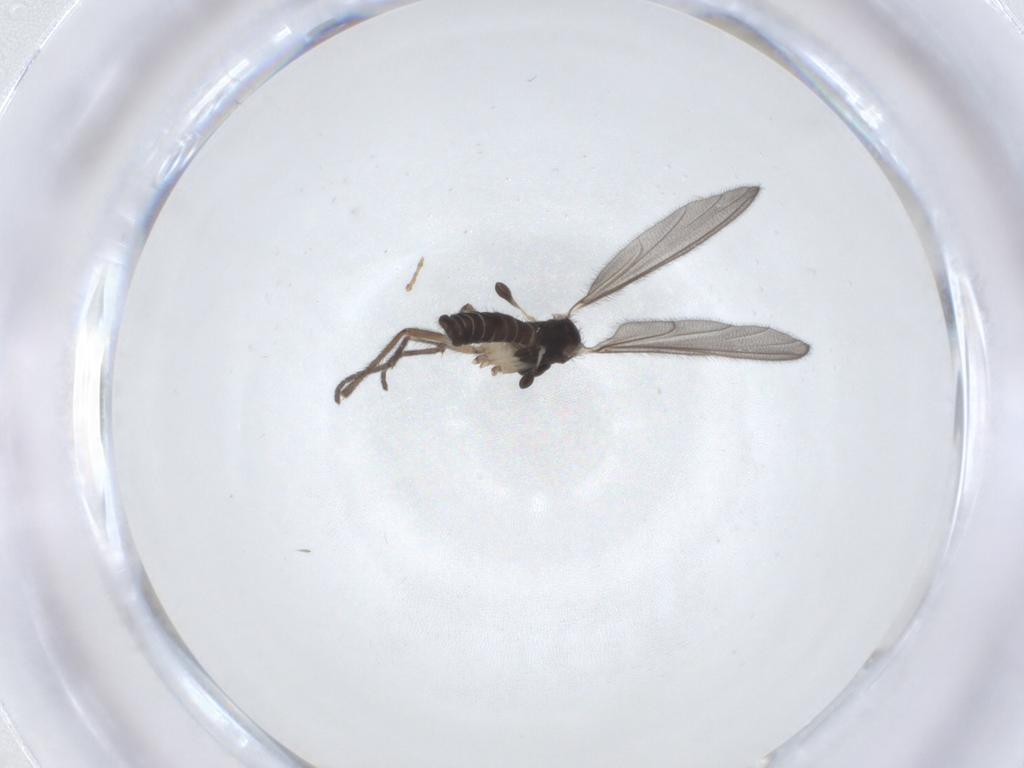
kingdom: Animalia
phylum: Arthropoda
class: Insecta
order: Diptera
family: Mycetophilidae
